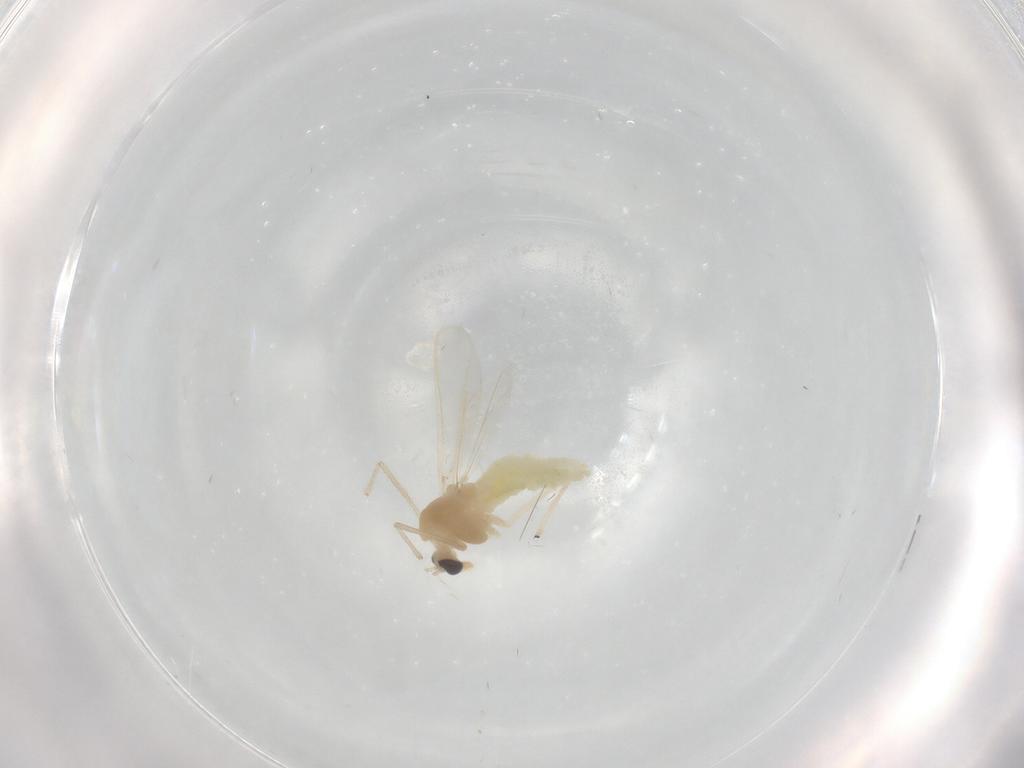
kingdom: Animalia
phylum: Arthropoda
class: Insecta
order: Diptera
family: Chironomidae
